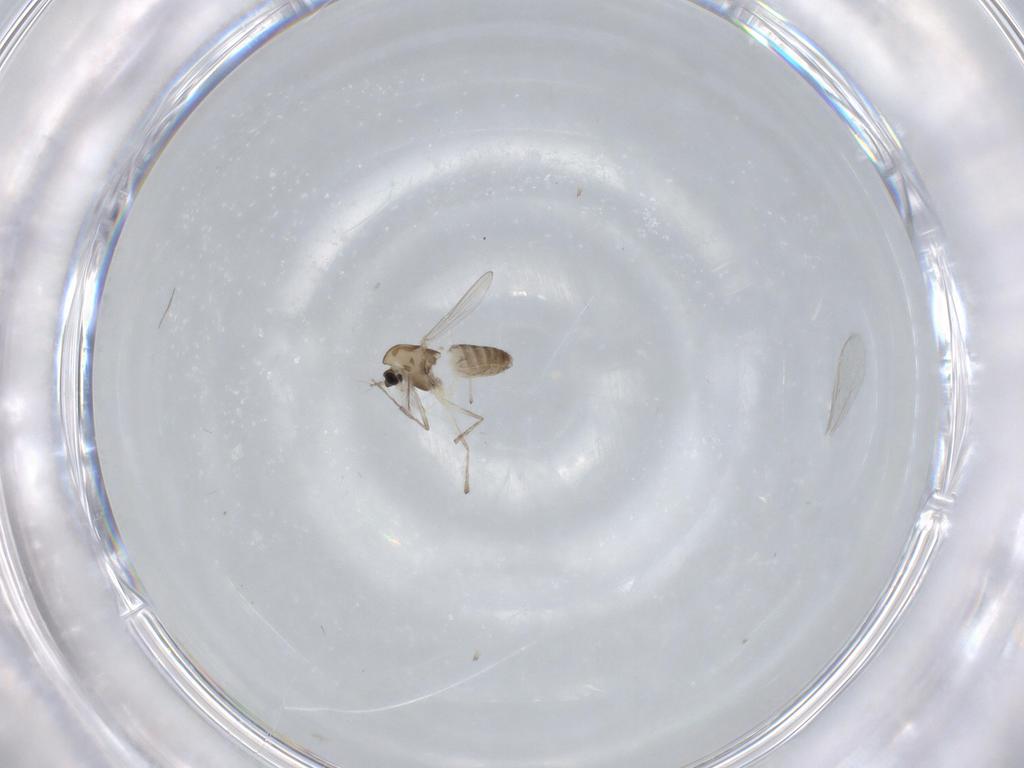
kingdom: Animalia
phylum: Arthropoda
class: Insecta
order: Diptera
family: Chironomidae
